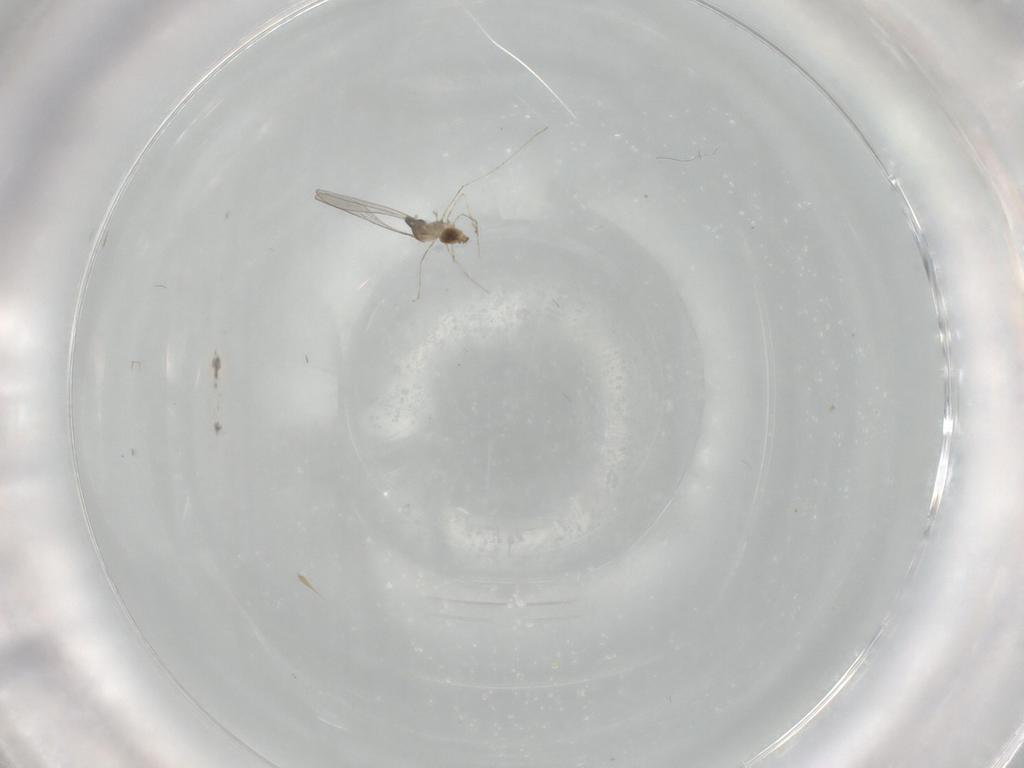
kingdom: Animalia
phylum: Arthropoda
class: Insecta
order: Diptera
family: Cecidomyiidae
